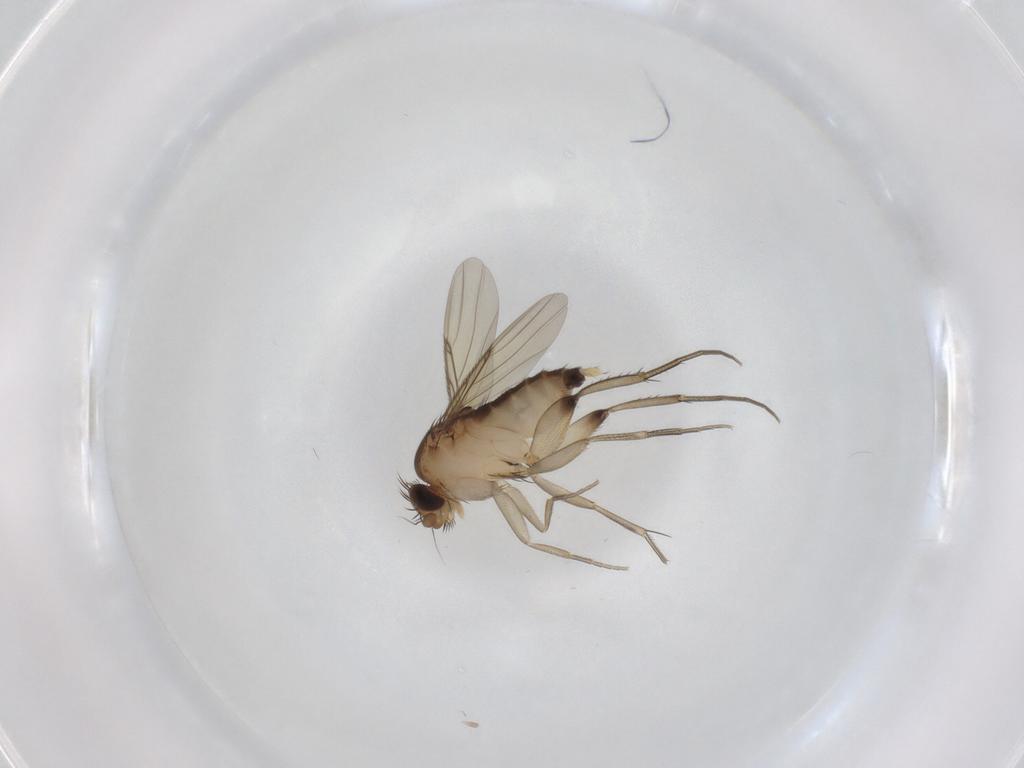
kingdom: Animalia
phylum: Arthropoda
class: Insecta
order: Diptera
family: Phoridae
